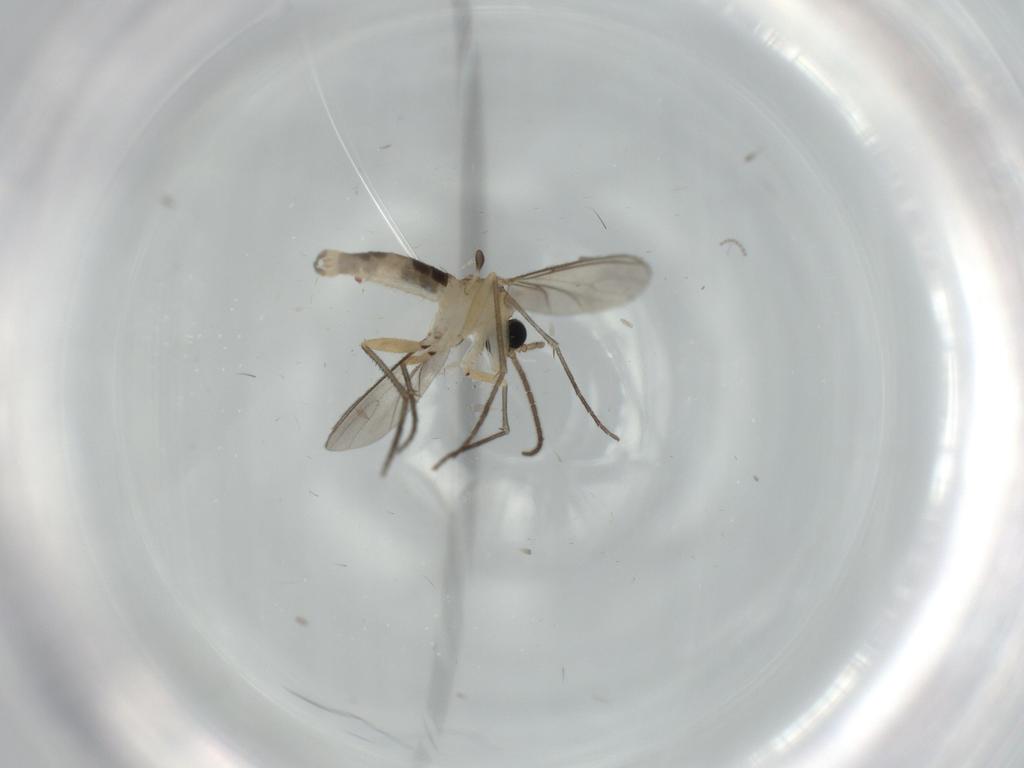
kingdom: Animalia
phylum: Arthropoda
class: Insecta
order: Diptera
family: Sciaridae
